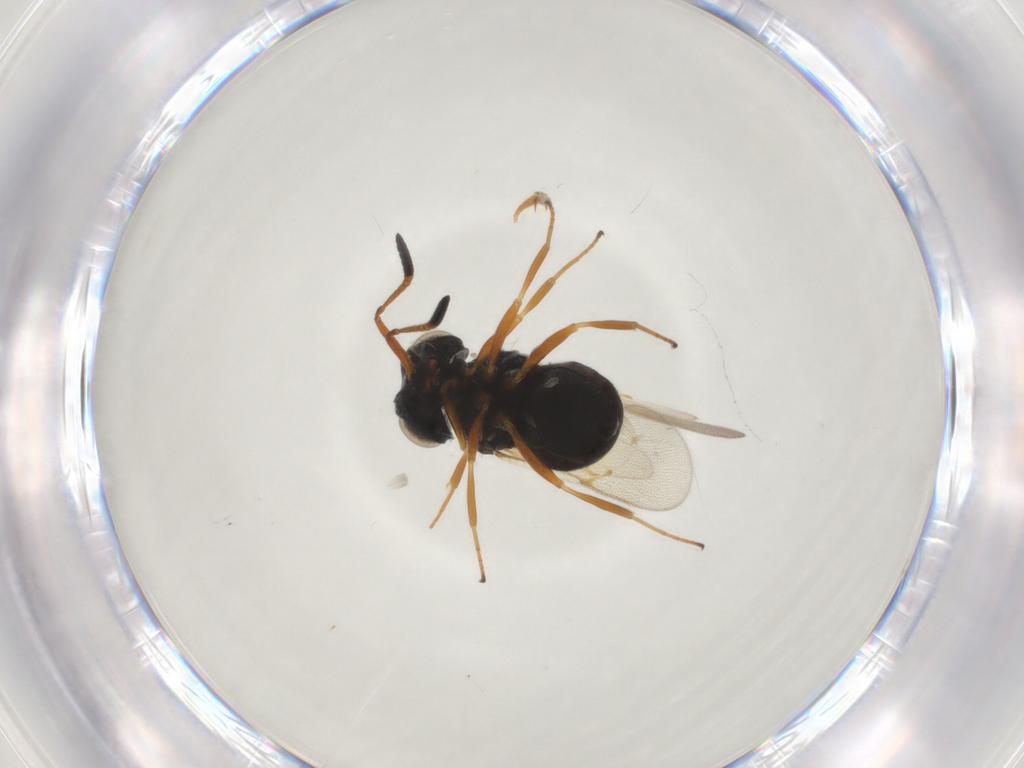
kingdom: Animalia
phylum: Arthropoda
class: Insecta
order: Hymenoptera
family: Scelionidae
